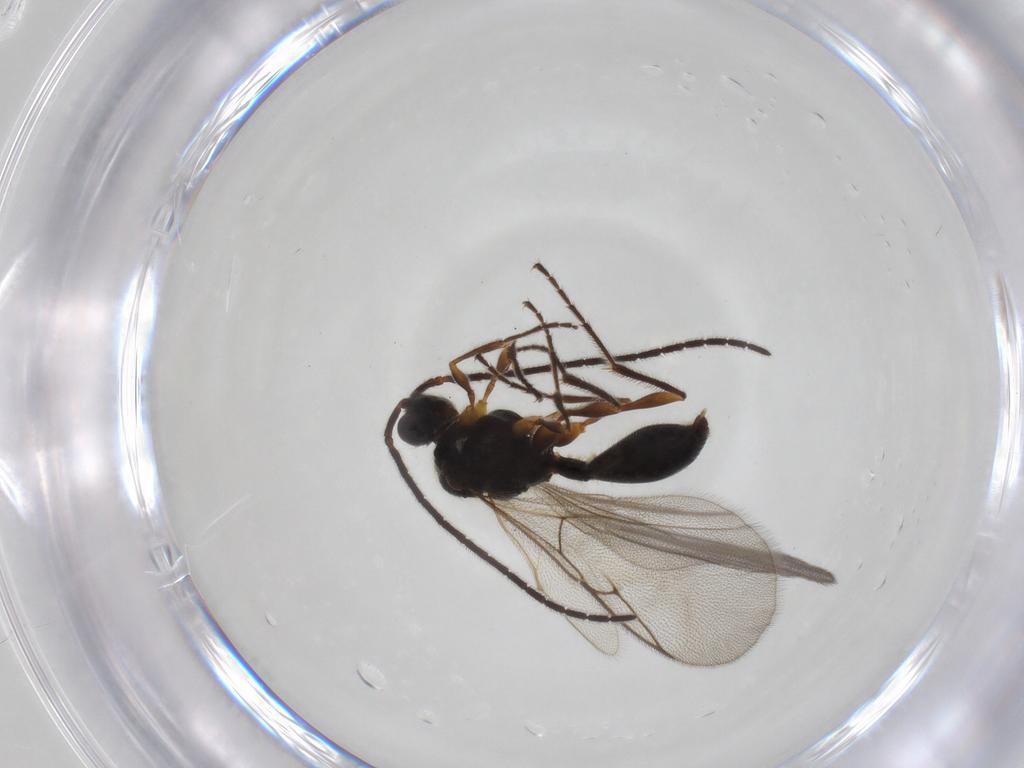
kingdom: Animalia
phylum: Arthropoda
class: Insecta
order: Hymenoptera
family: Diapriidae
